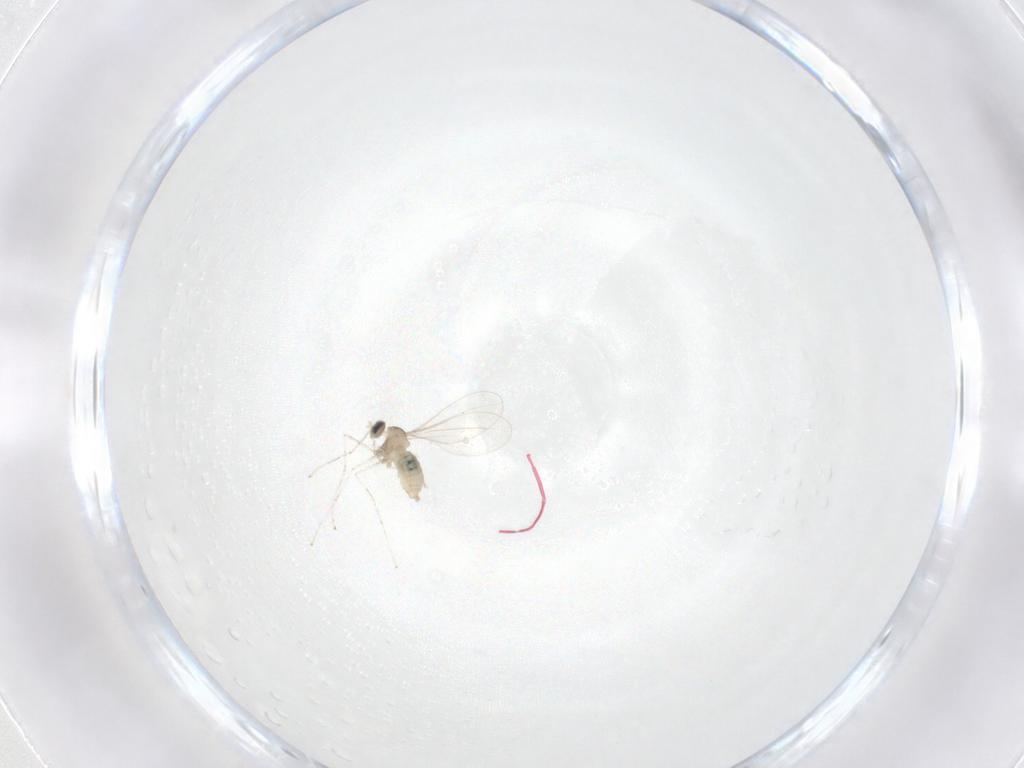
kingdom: Animalia
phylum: Arthropoda
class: Insecta
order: Diptera
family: Cecidomyiidae
